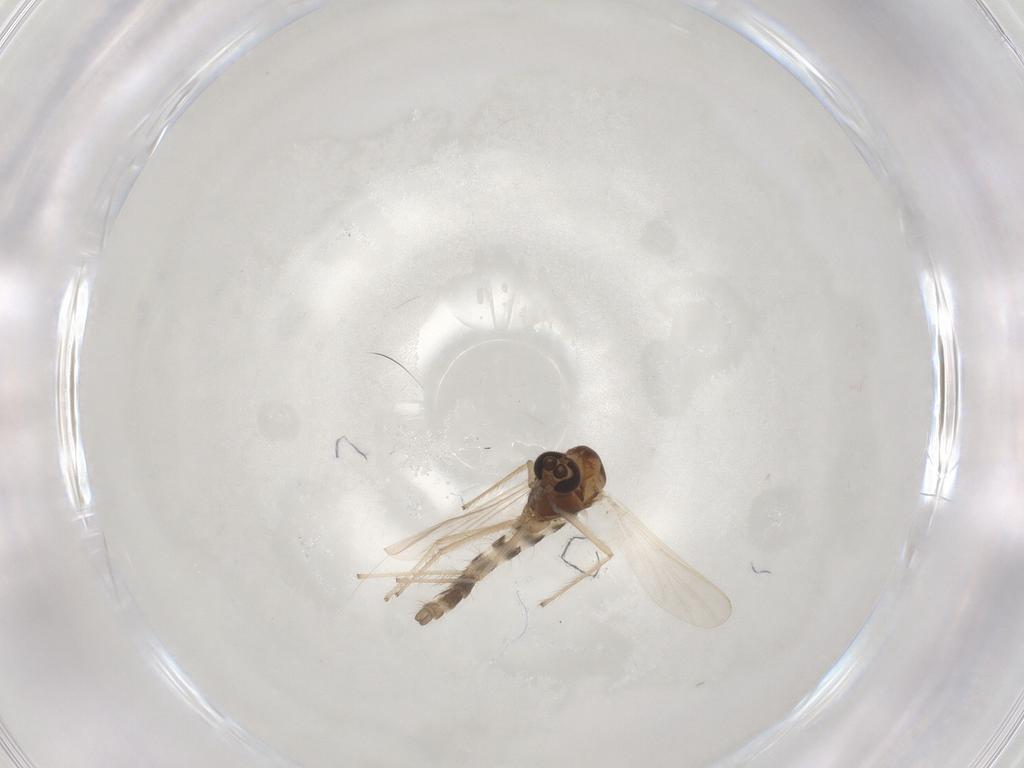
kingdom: Animalia
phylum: Arthropoda
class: Insecta
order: Diptera
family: Chironomidae
